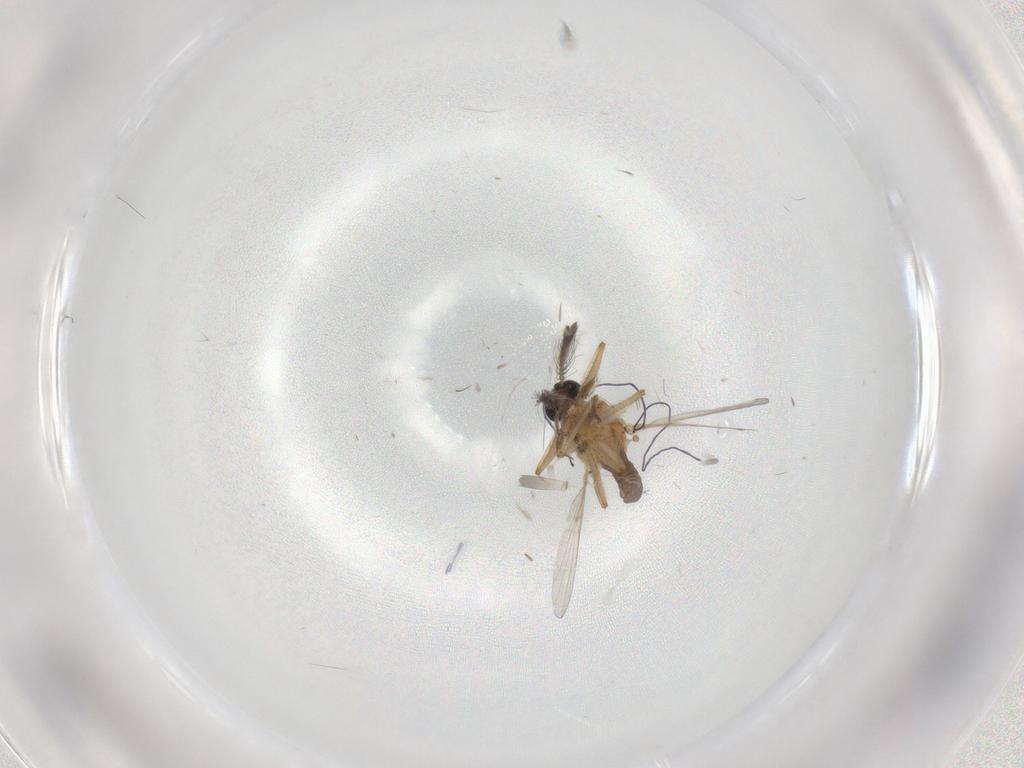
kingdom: Animalia
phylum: Arthropoda
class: Insecta
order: Diptera
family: Ceratopogonidae
